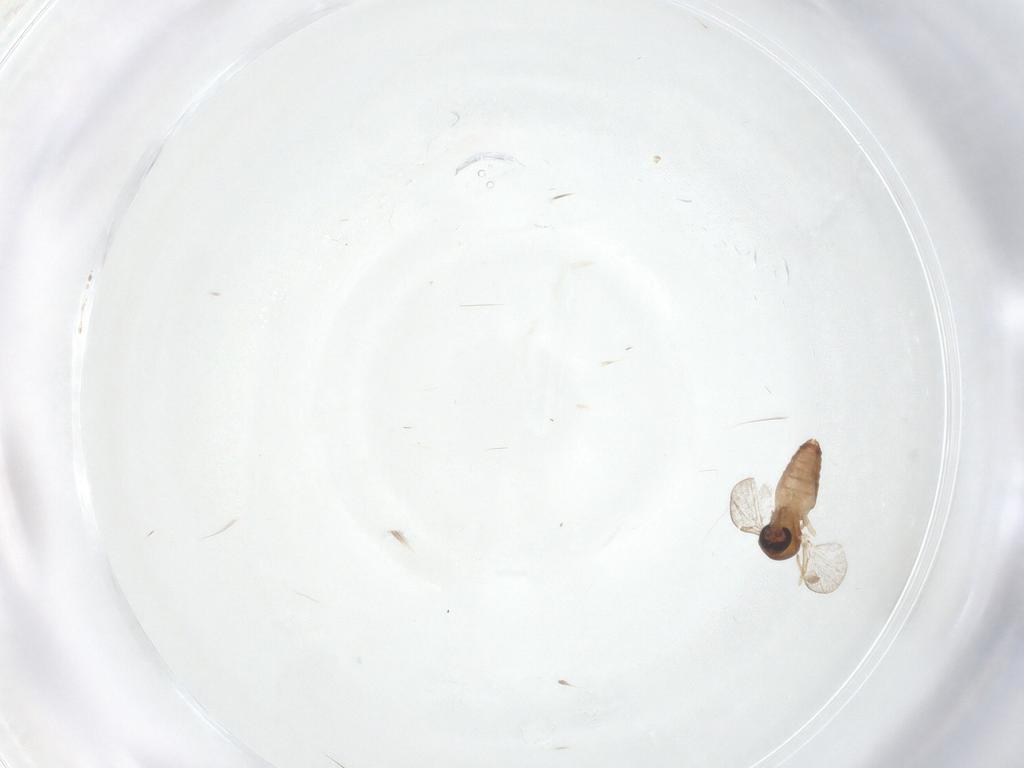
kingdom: Animalia
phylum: Arthropoda
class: Insecta
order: Diptera
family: Ceratopogonidae
